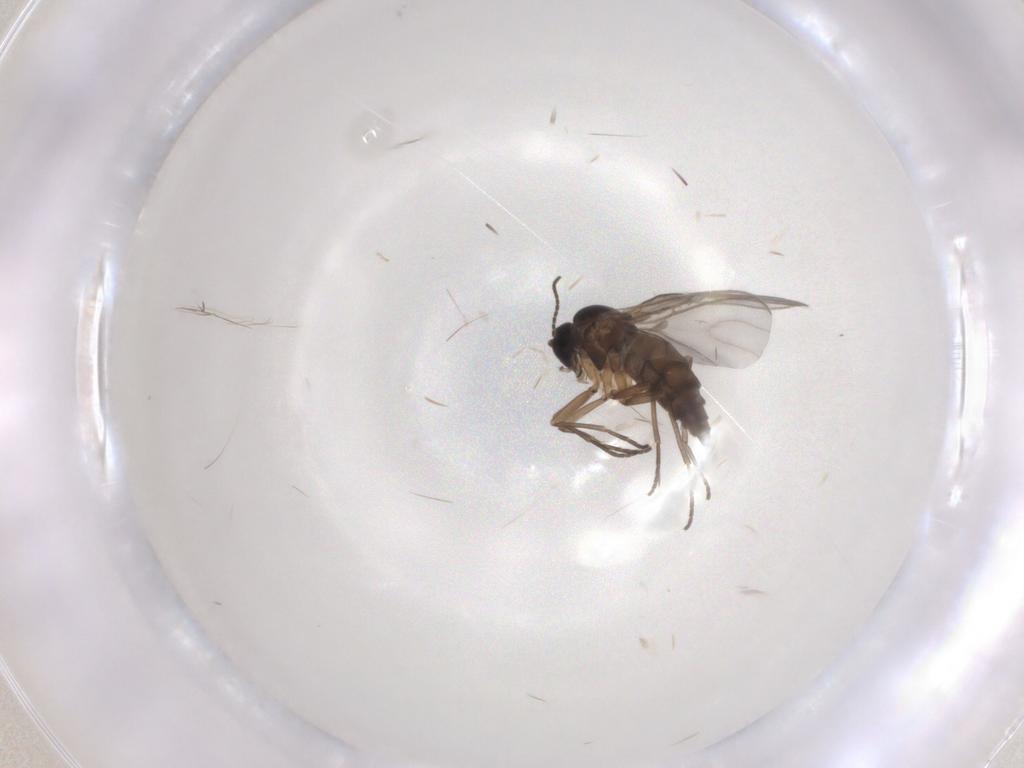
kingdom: Animalia
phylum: Arthropoda
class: Insecta
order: Diptera
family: Sciaridae
